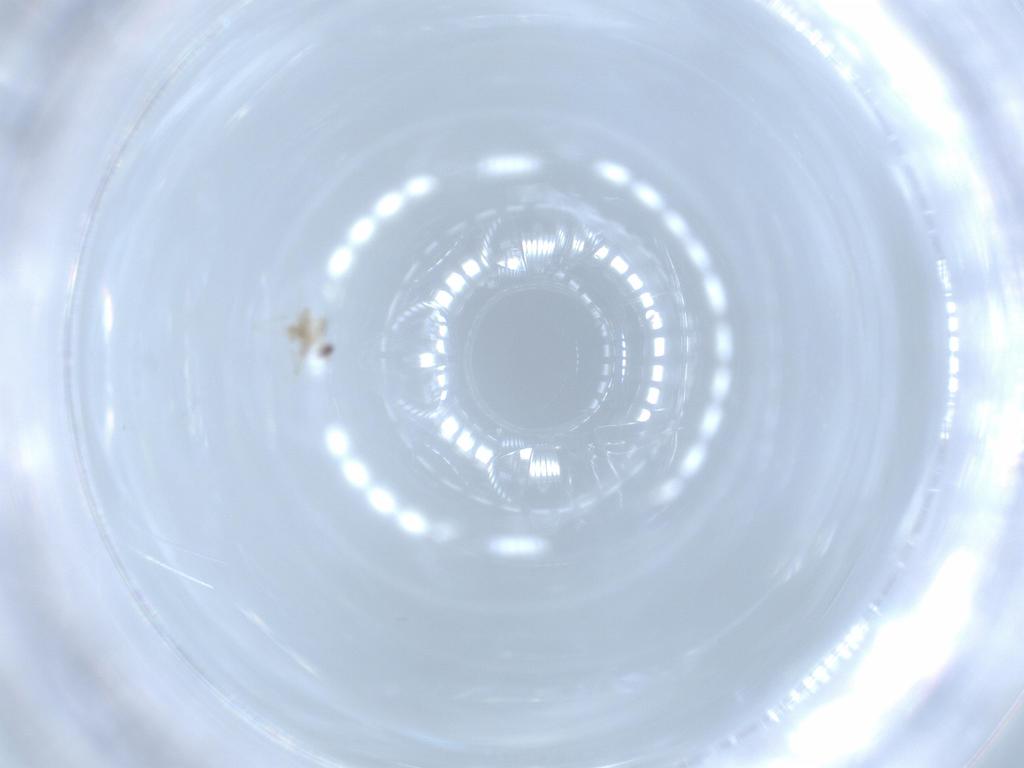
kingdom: Animalia
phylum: Arthropoda
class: Insecta
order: Diptera
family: Cecidomyiidae
